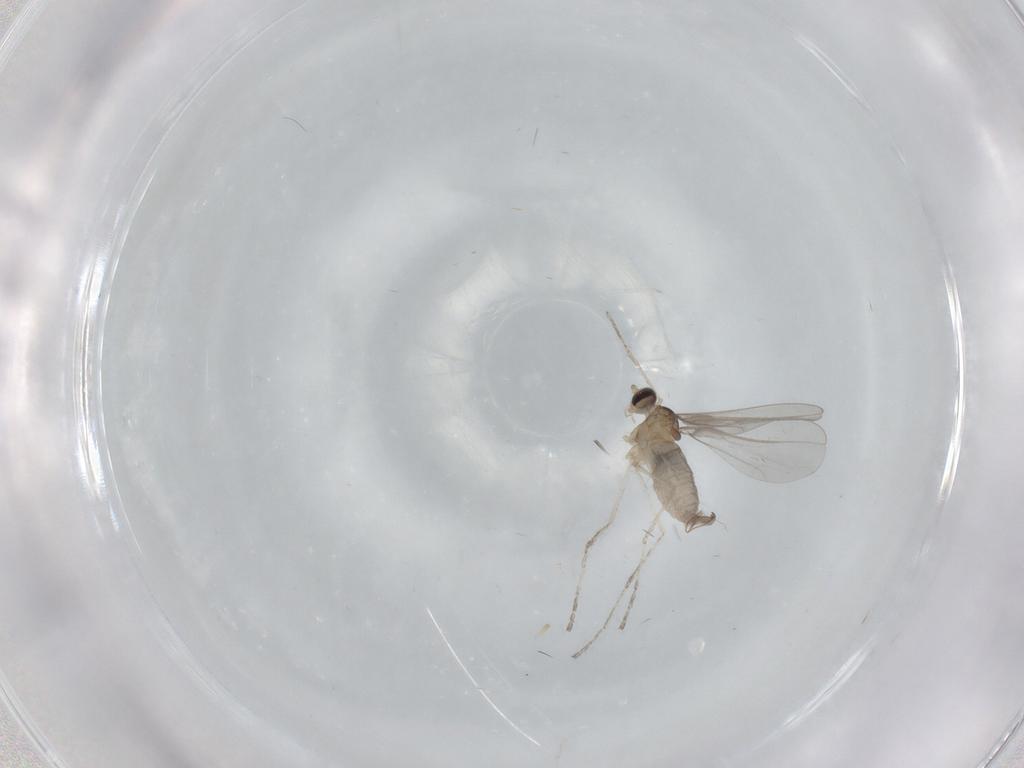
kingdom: Animalia
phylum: Arthropoda
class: Insecta
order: Diptera
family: Cecidomyiidae
